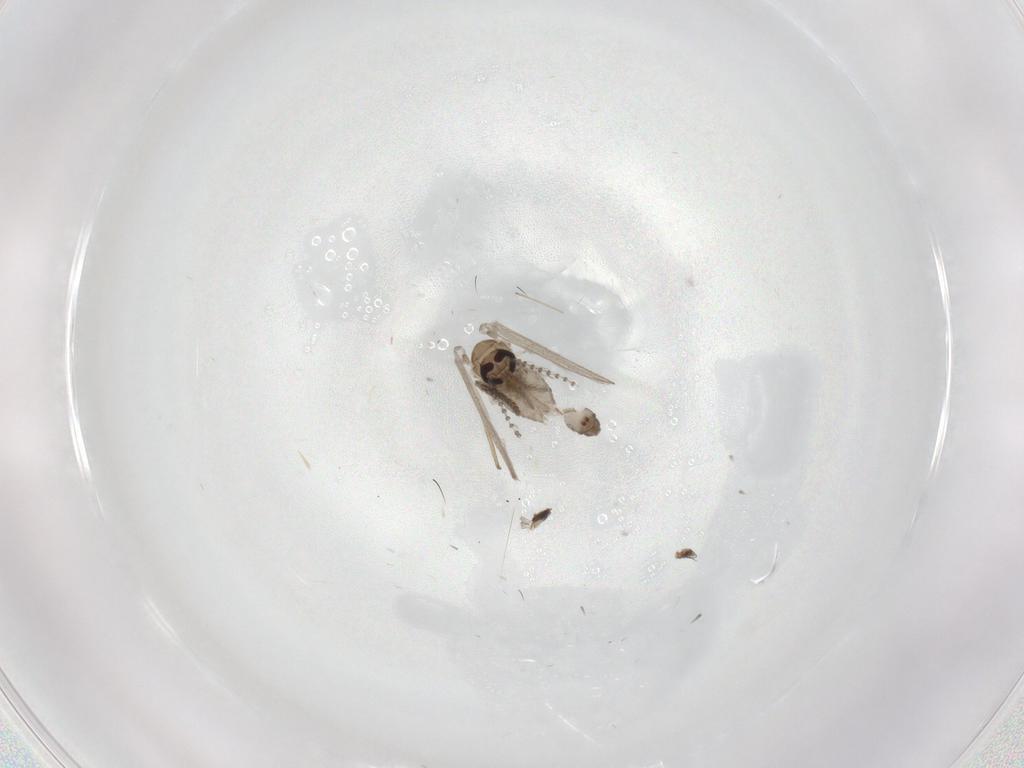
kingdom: Animalia
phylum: Arthropoda
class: Insecta
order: Diptera
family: Psychodidae
